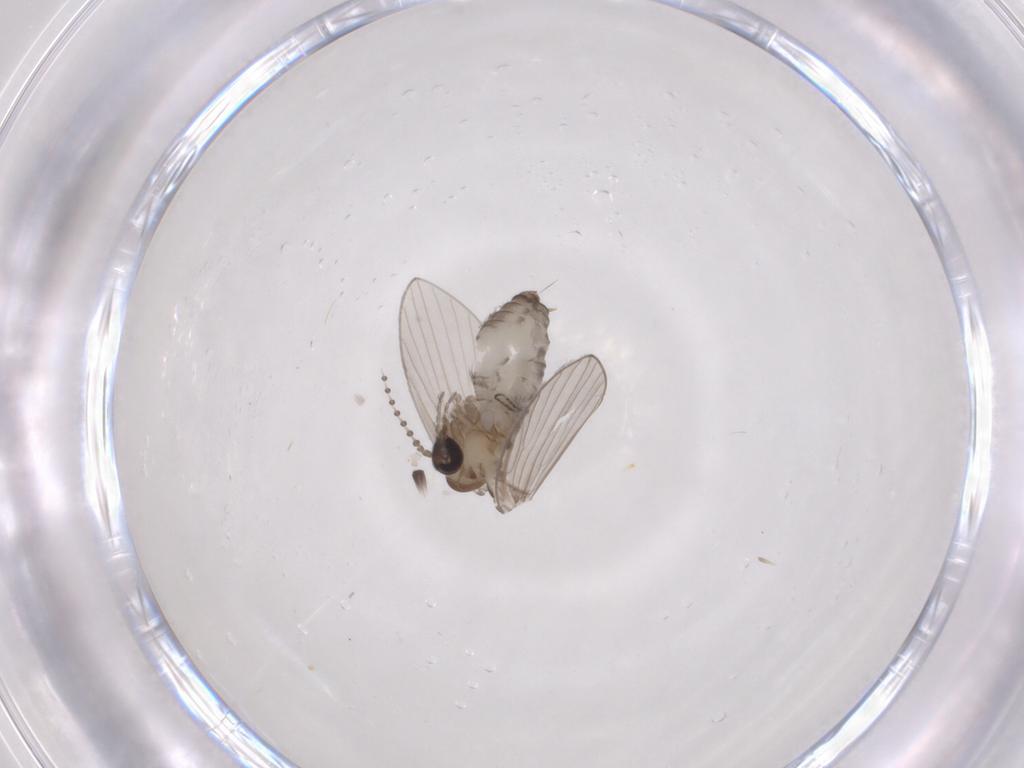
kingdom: Animalia
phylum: Arthropoda
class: Insecta
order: Diptera
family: Psychodidae
